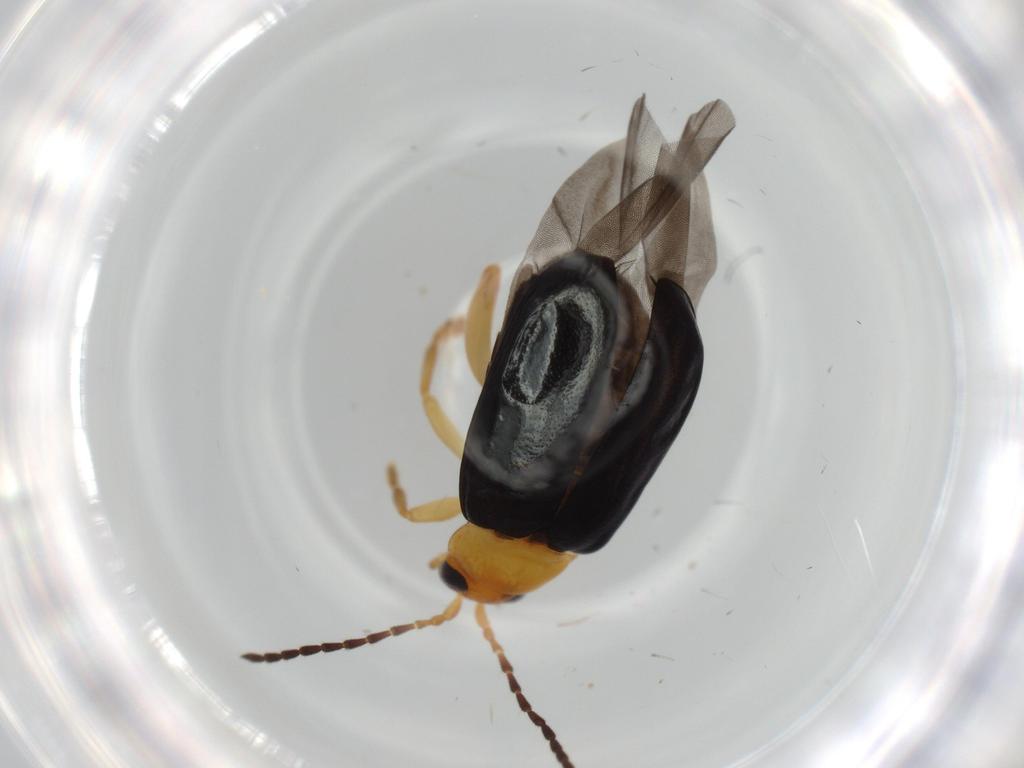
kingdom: Animalia
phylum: Arthropoda
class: Insecta
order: Coleoptera
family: Chrysomelidae
